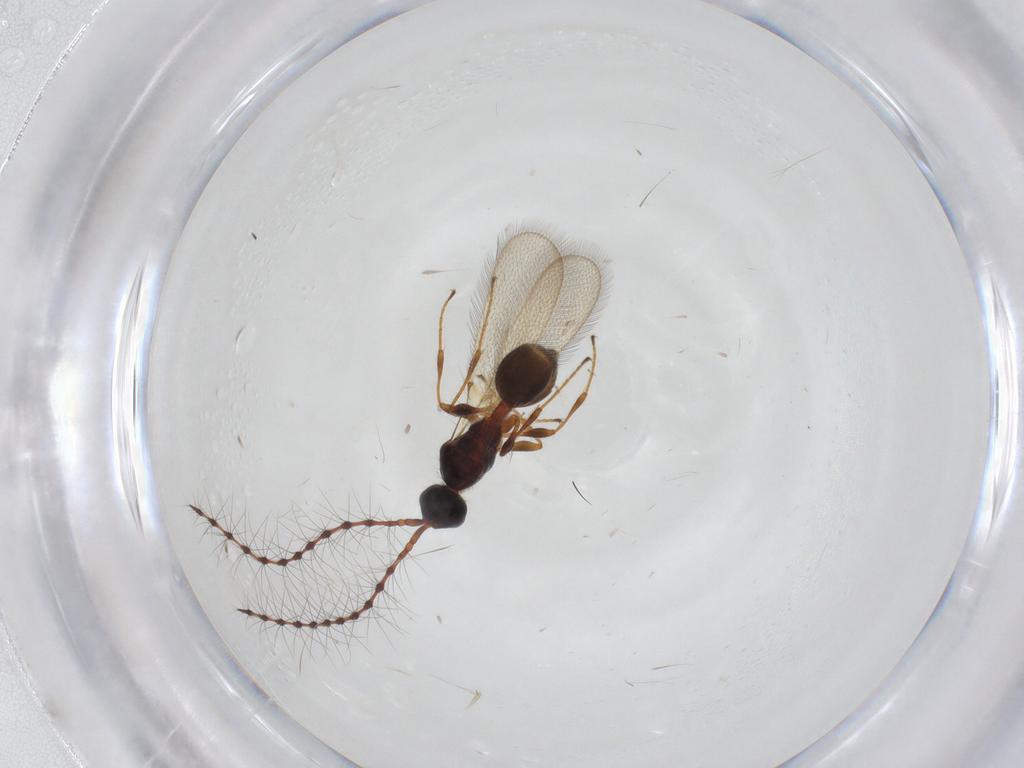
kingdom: Animalia
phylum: Arthropoda
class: Insecta
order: Hymenoptera
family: Diapriidae
